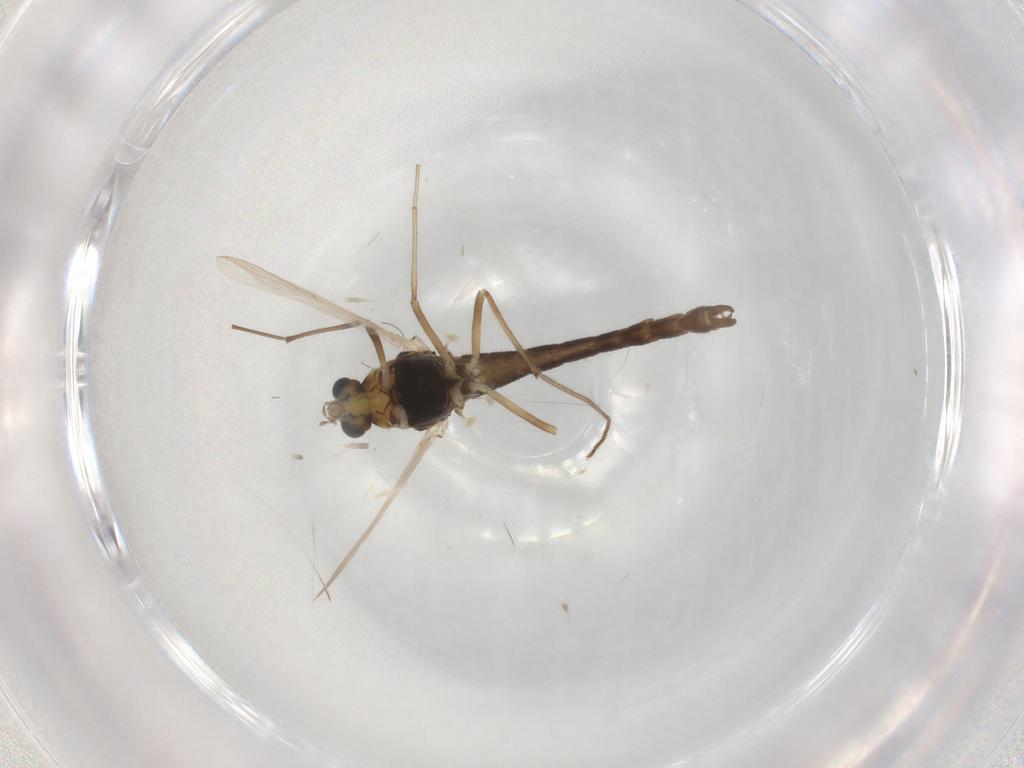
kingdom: Animalia
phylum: Arthropoda
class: Insecta
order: Diptera
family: Cecidomyiidae
